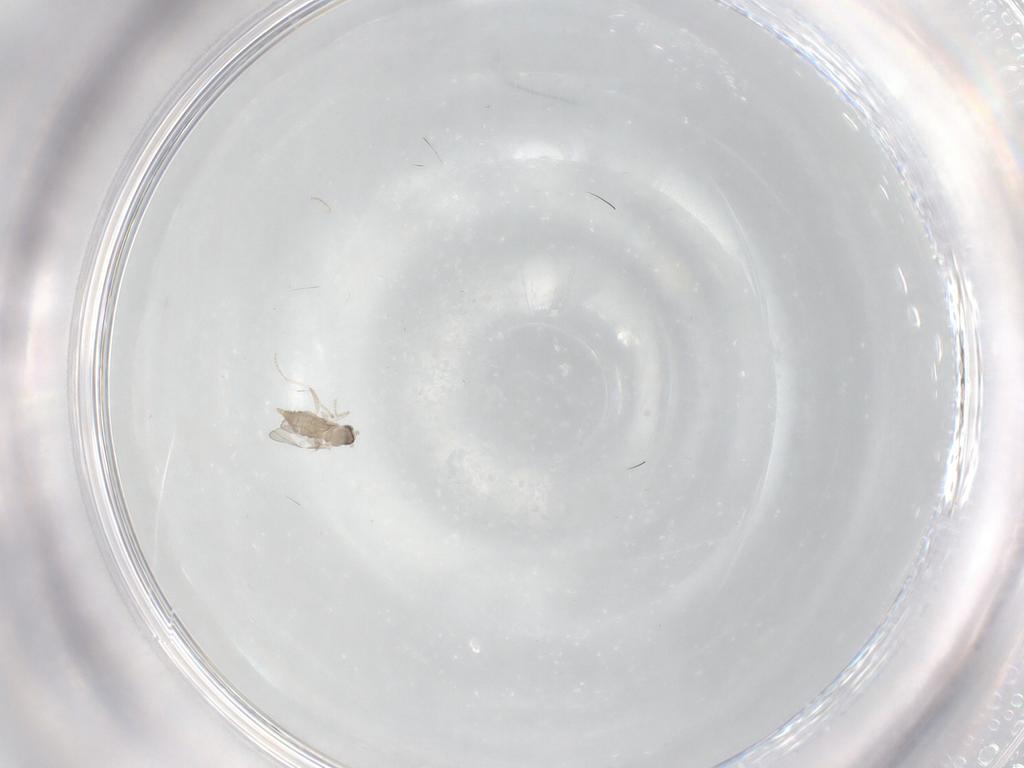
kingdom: Animalia
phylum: Arthropoda
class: Insecta
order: Diptera
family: Cecidomyiidae
